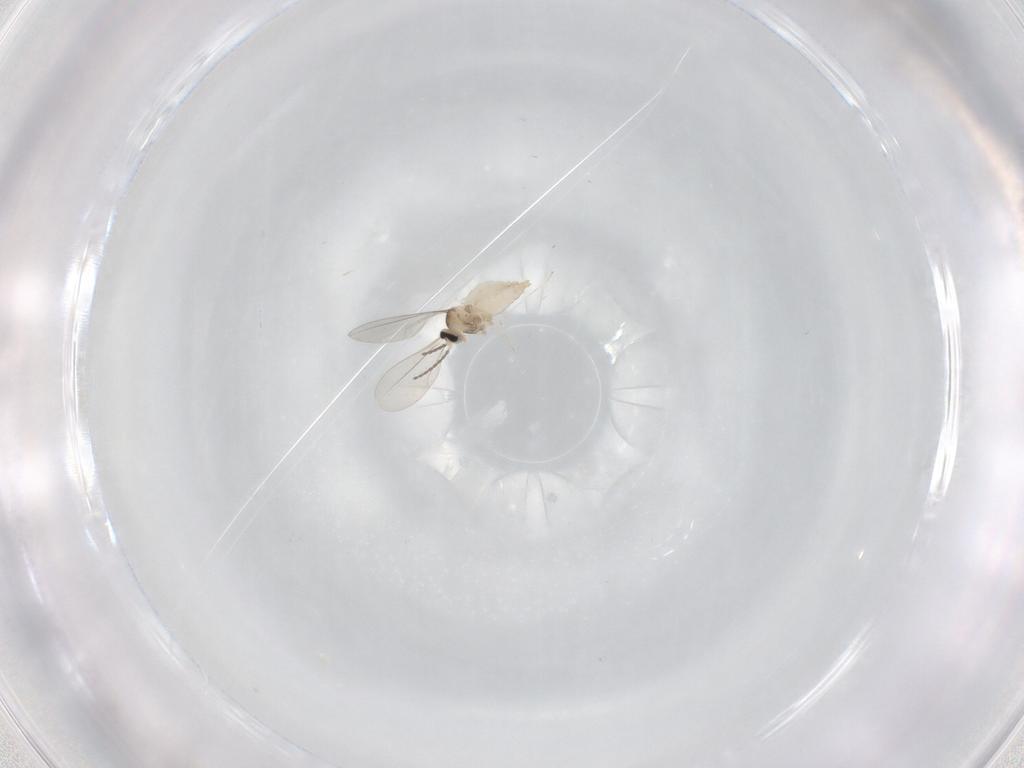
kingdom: Animalia
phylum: Arthropoda
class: Insecta
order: Diptera
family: Cecidomyiidae
